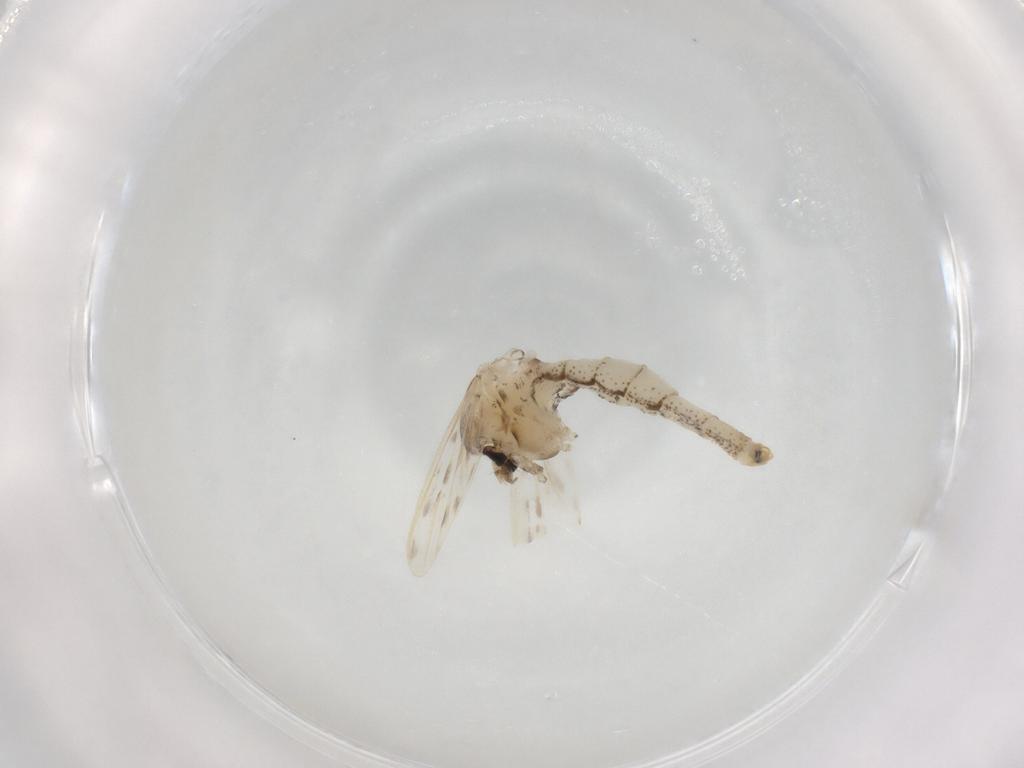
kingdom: Animalia
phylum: Arthropoda
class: Insecta
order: Diptera
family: Chaoboridae
